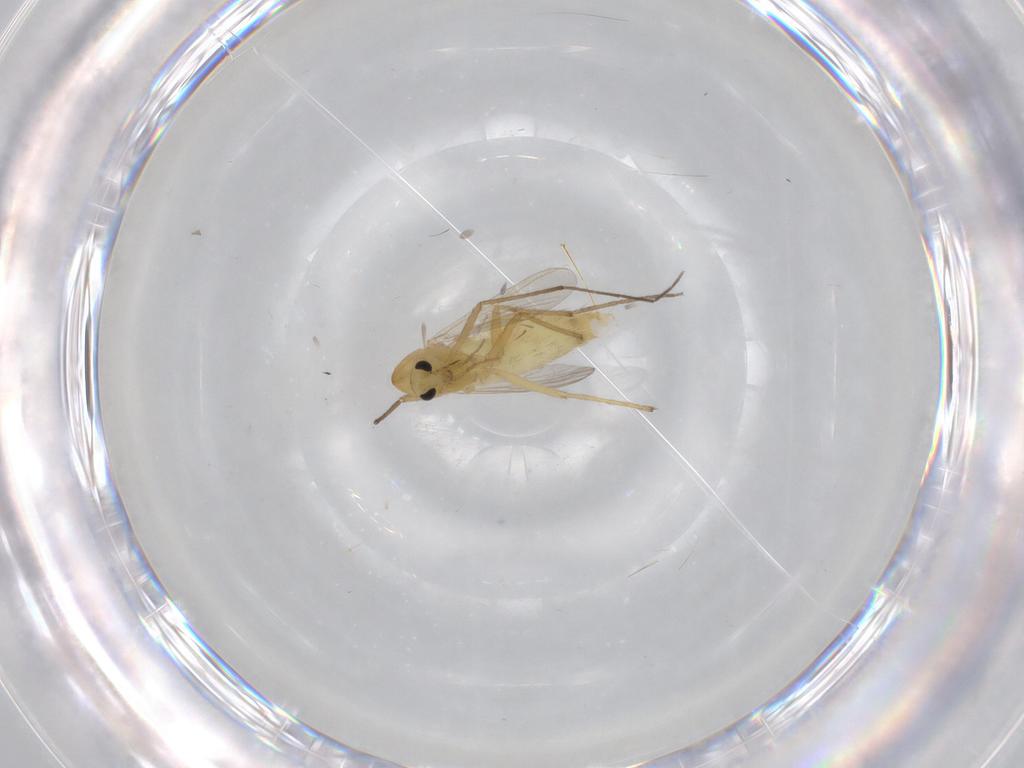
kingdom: Animalia
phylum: Arthropoda
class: Insecta
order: Diptera
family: Chironomidae
